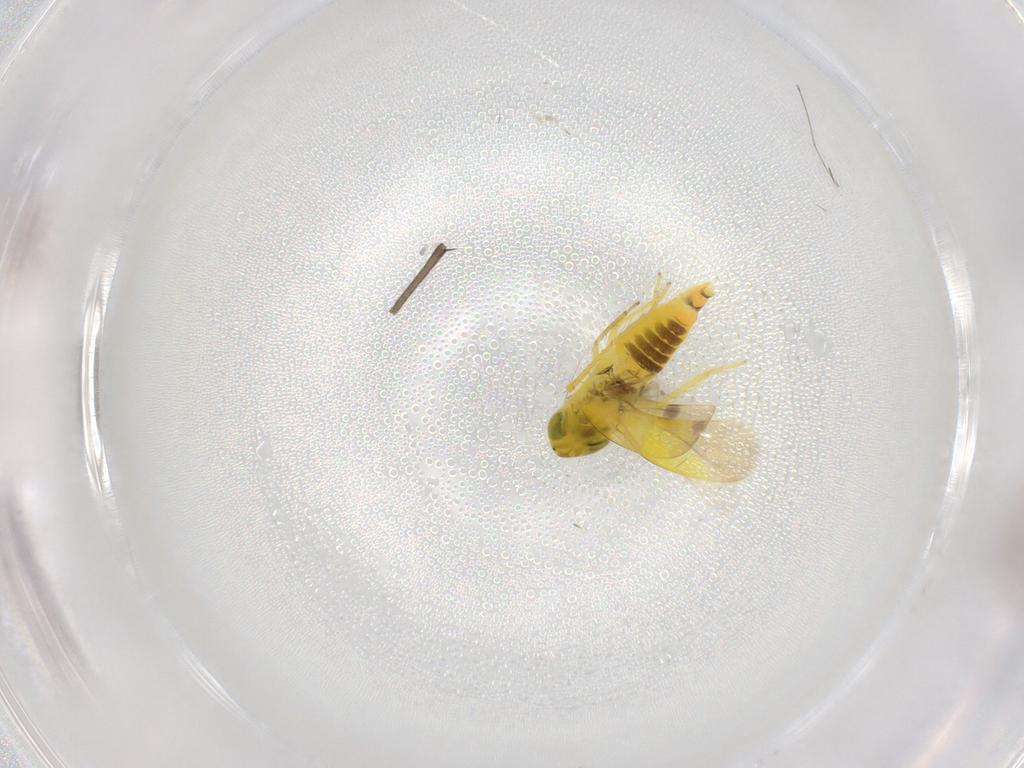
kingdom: Animalia
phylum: Arthropoda
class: Insecta
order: Hemiptera
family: Cicadellidae
